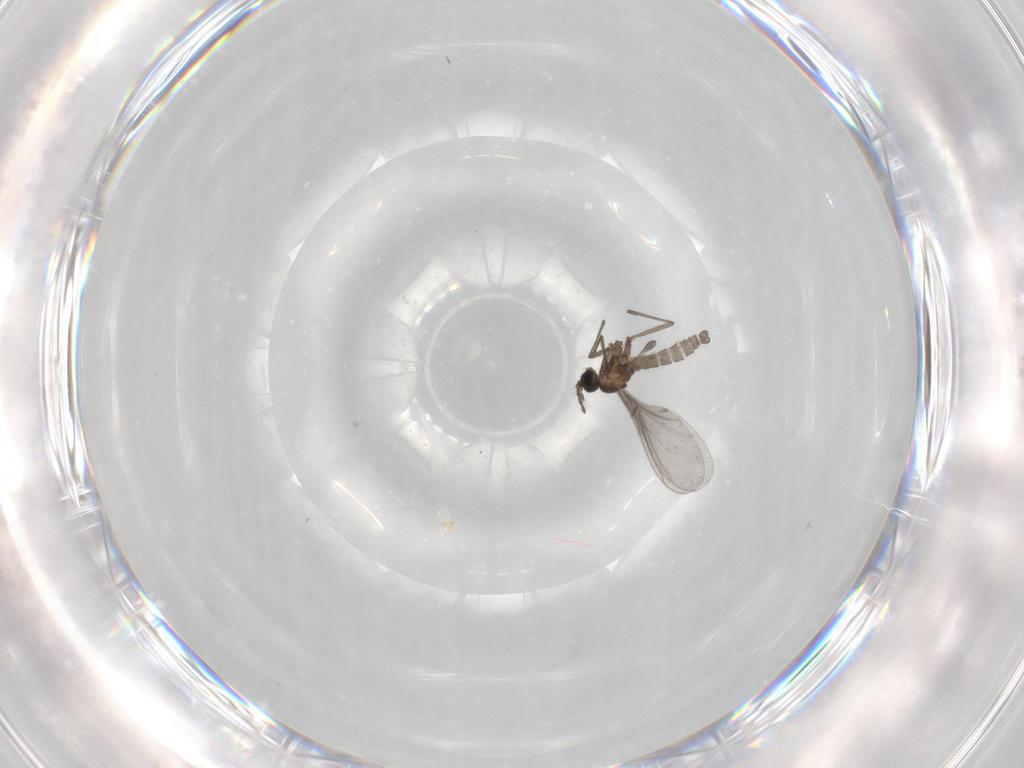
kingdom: Animalia
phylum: Arthropoda
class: Insecta
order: Diptera
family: Sciaridae
